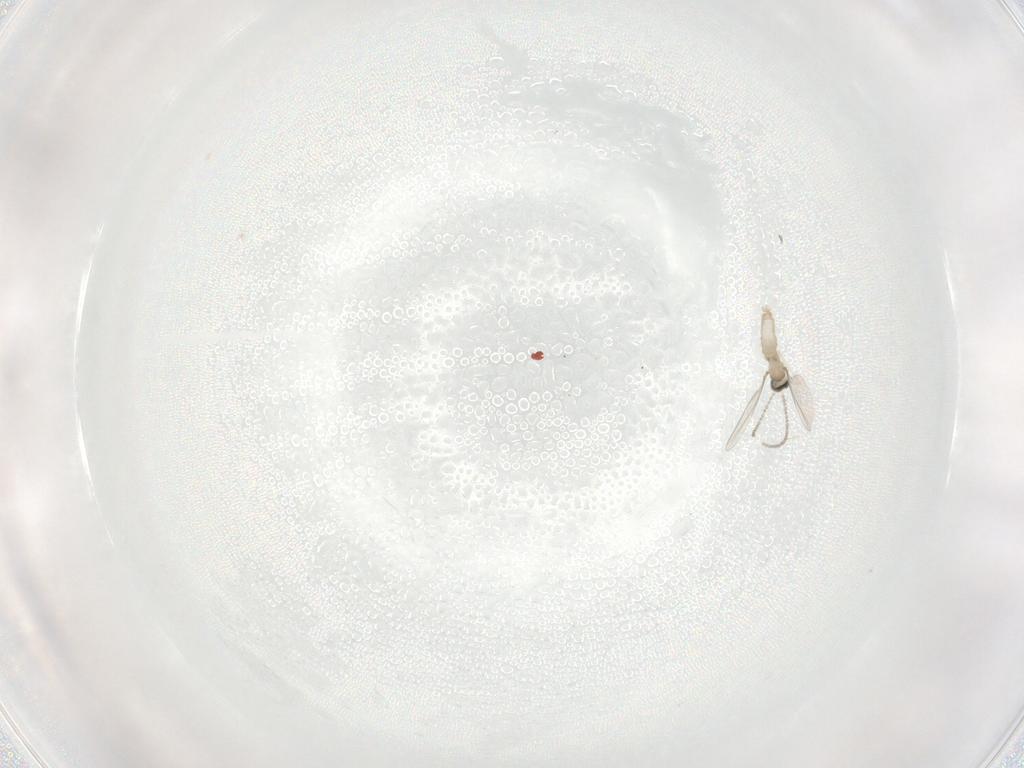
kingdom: Animalia
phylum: Arthropoda
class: Insecta
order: Diptera
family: Cecidomyiidae
